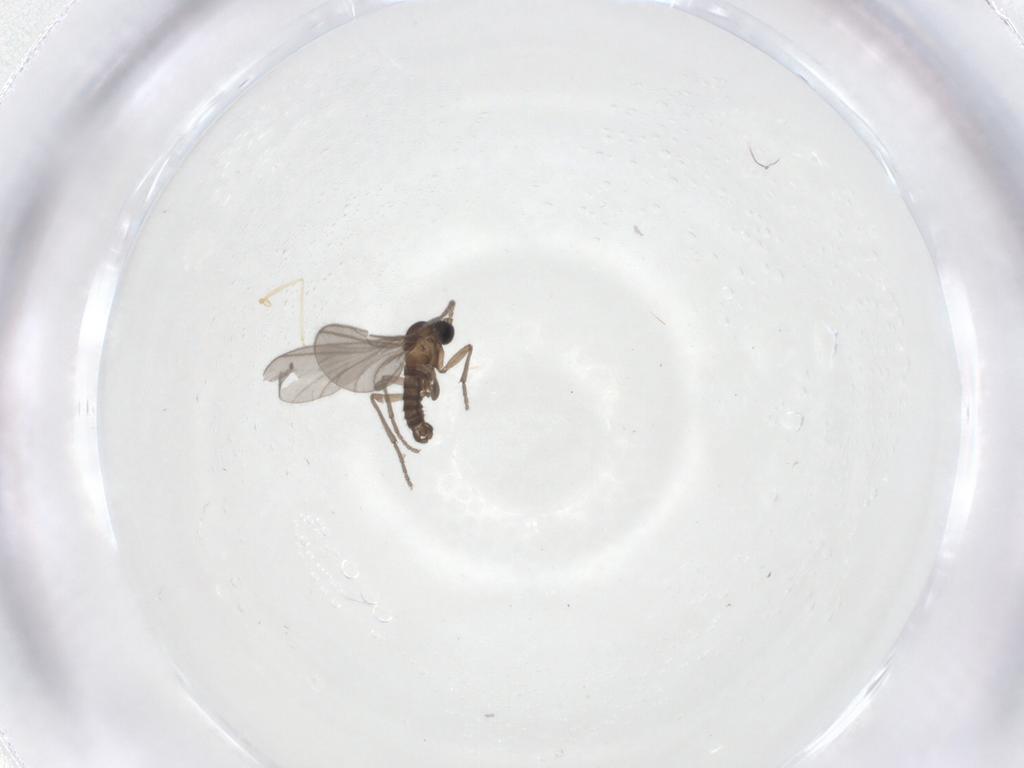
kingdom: Animalia
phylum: Arthropoda
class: Insecta
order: Diptera
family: Sciaridae
